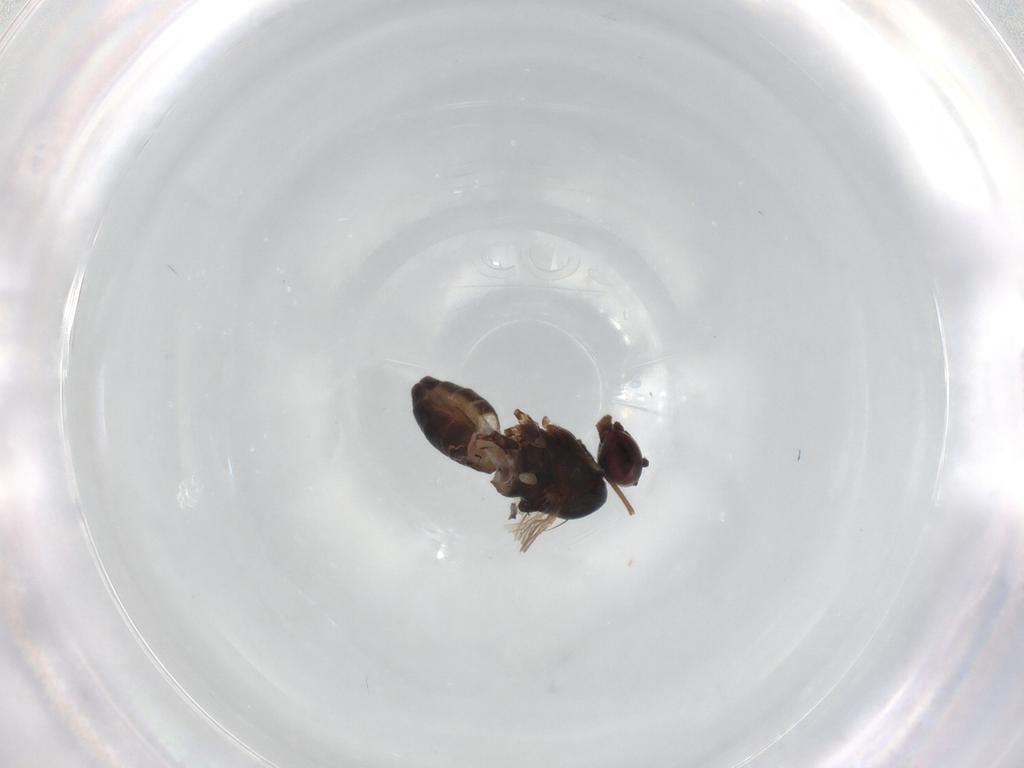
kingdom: Animalia
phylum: Arthropoda
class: Insecta
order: Diptera
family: Dolichopodidae
